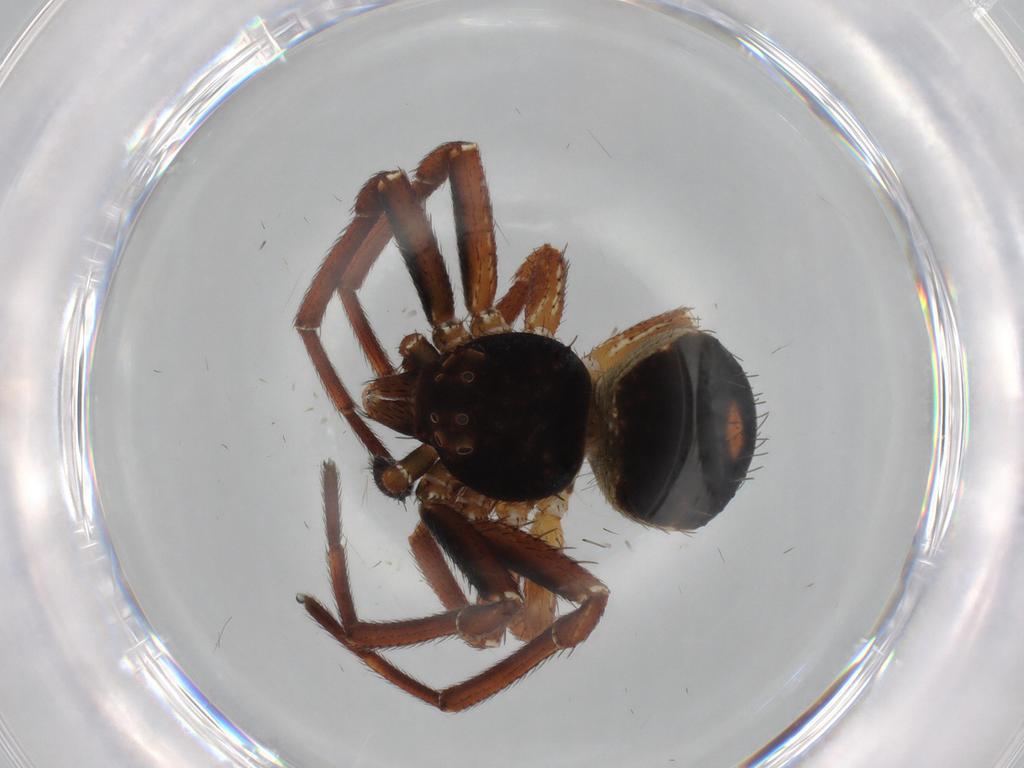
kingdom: Animalia
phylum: Arthropoda
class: Arachnida
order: Araneae
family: Thomisidae
